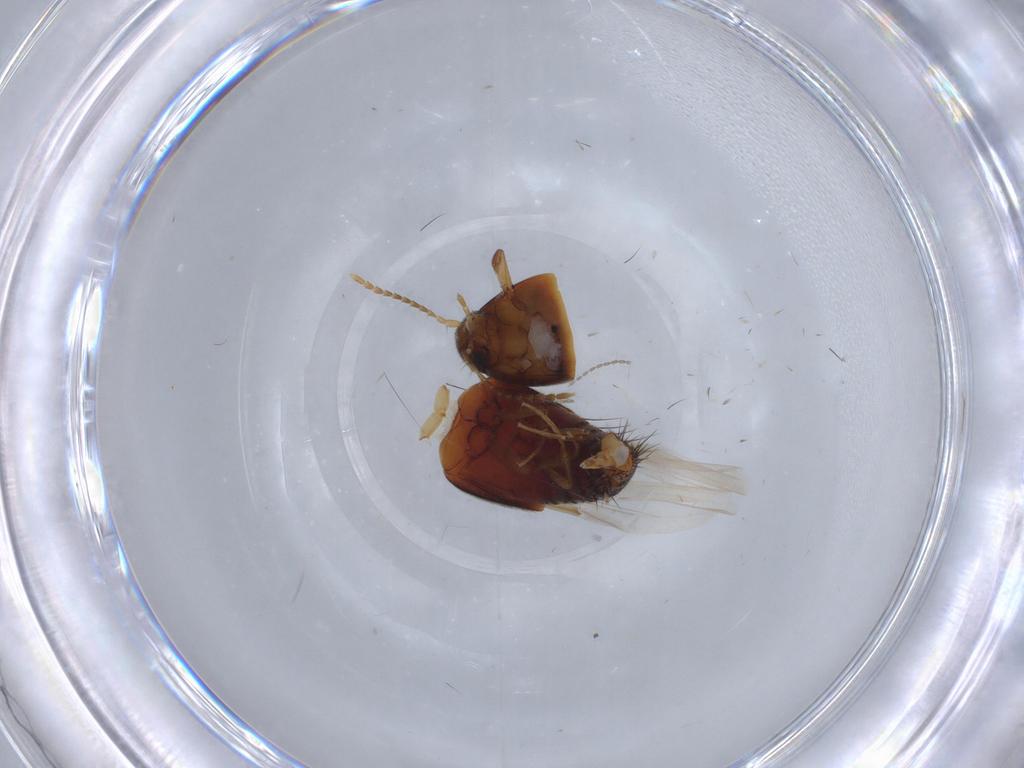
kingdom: Animalia
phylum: Arthropoda
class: Insecta
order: Coleoptera
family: Staphylinidae
